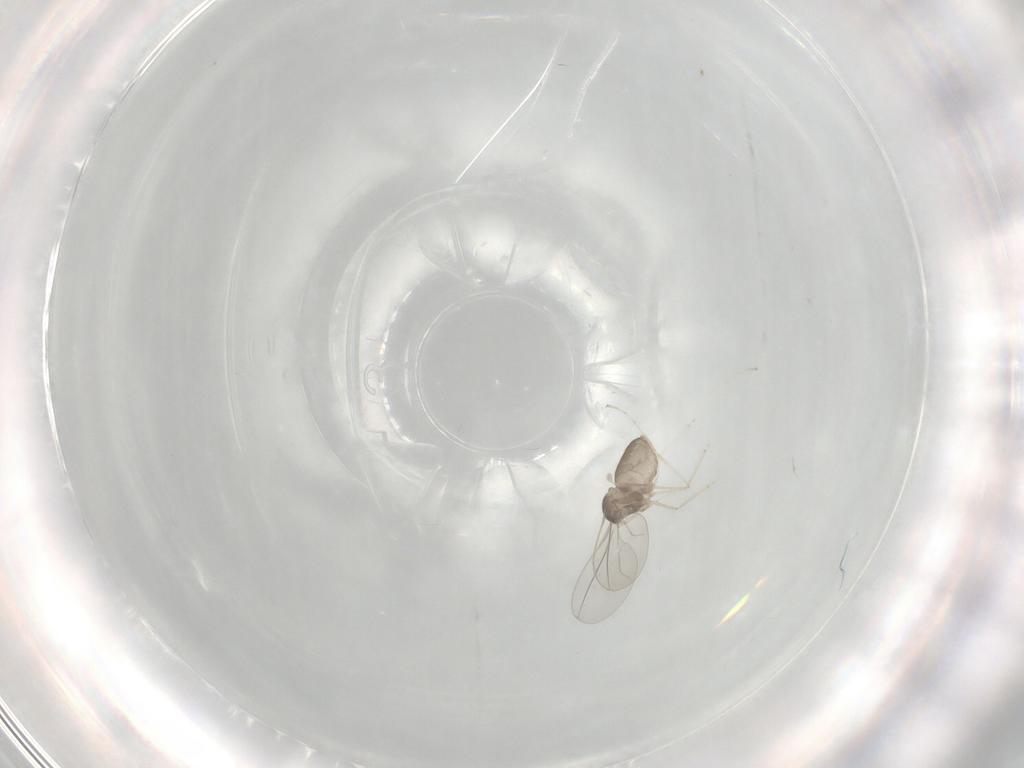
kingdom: Animalia
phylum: Arthropoda
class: Insecta
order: Diptera
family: Cecidomyiidae
